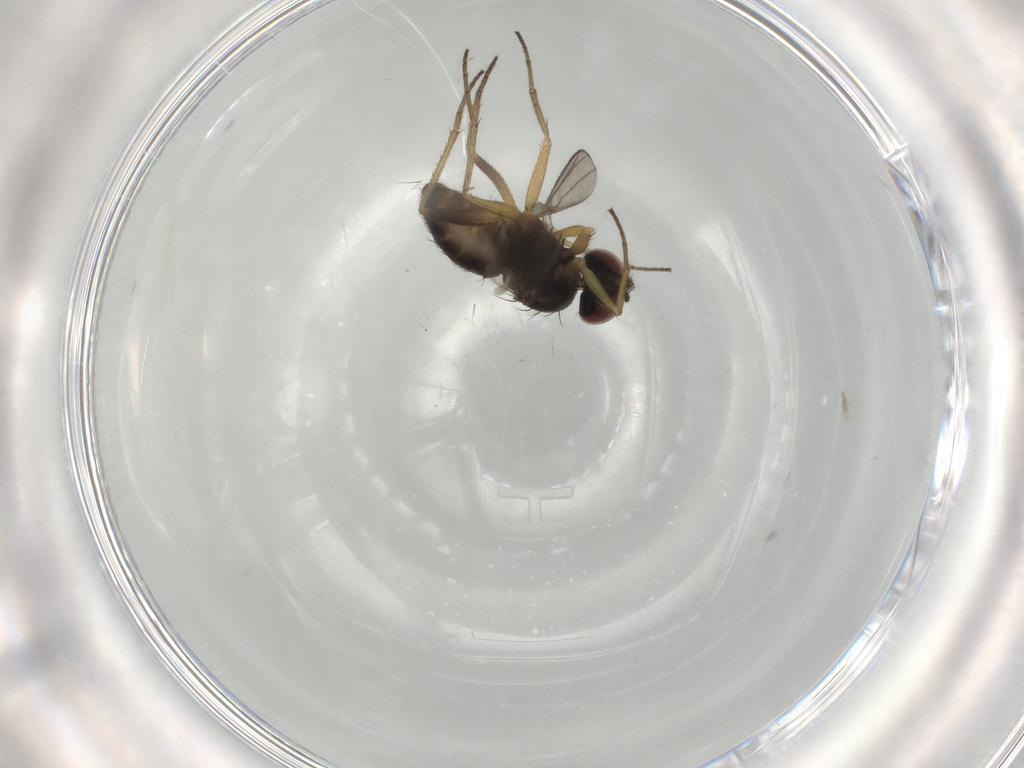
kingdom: Animalia
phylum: Arthropoda
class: Insecta
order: Diptera
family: Dolichopodidae
